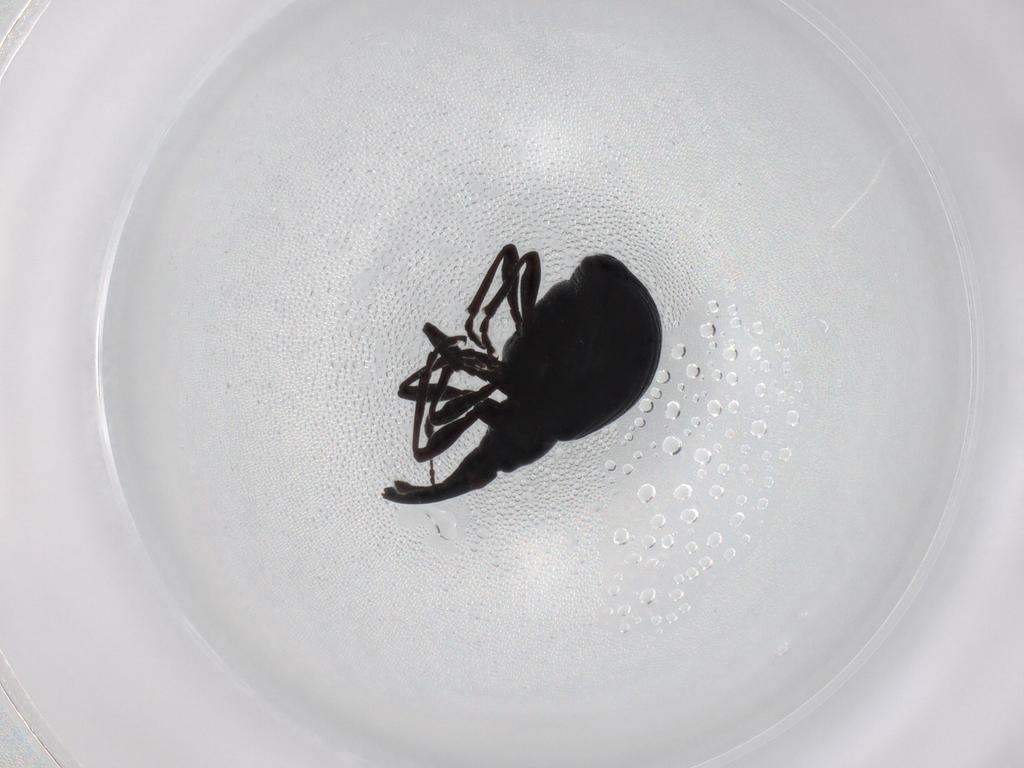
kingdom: Animalia
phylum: Arthropoda
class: Insecta
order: Coleoptera
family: Brentidae
